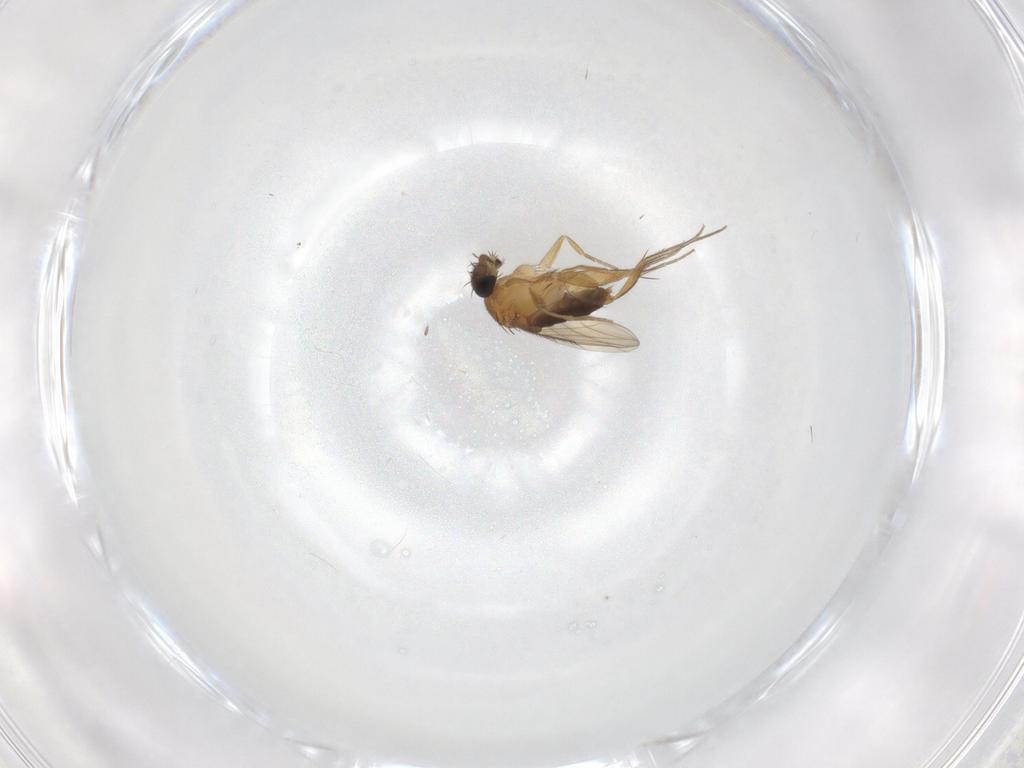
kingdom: Animalia
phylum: Arthropoda
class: Insecta
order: Diptera
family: Phoridae
